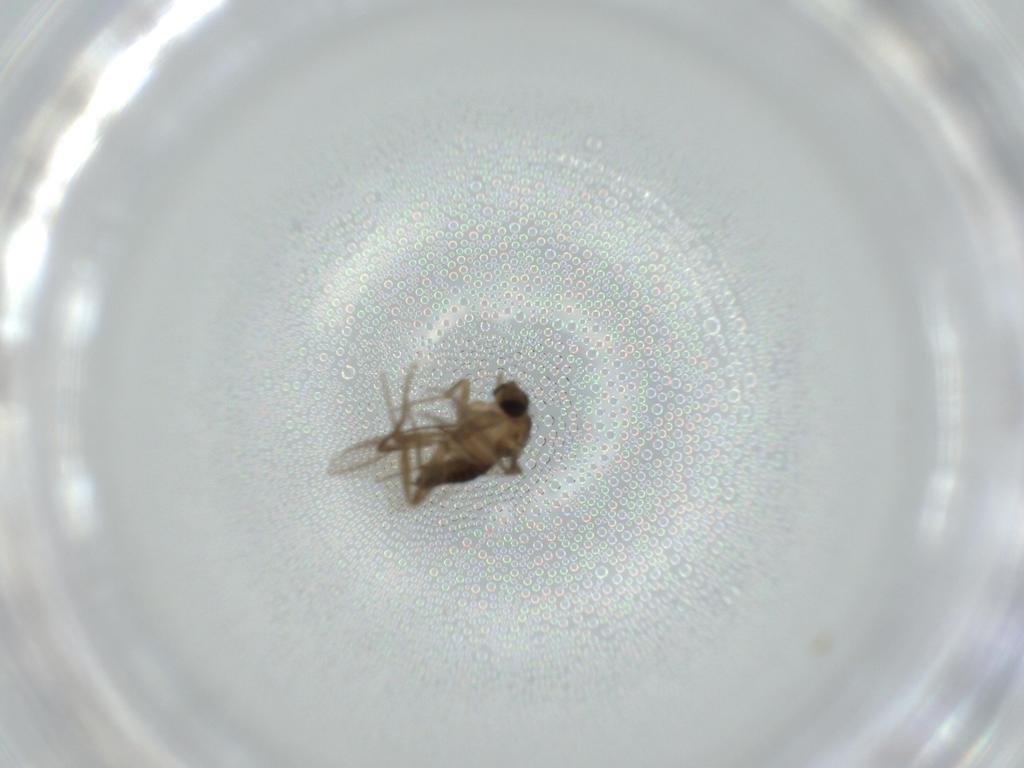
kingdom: Animalia
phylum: Arthropoda
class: Insecta
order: Diptera
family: Phoridae
